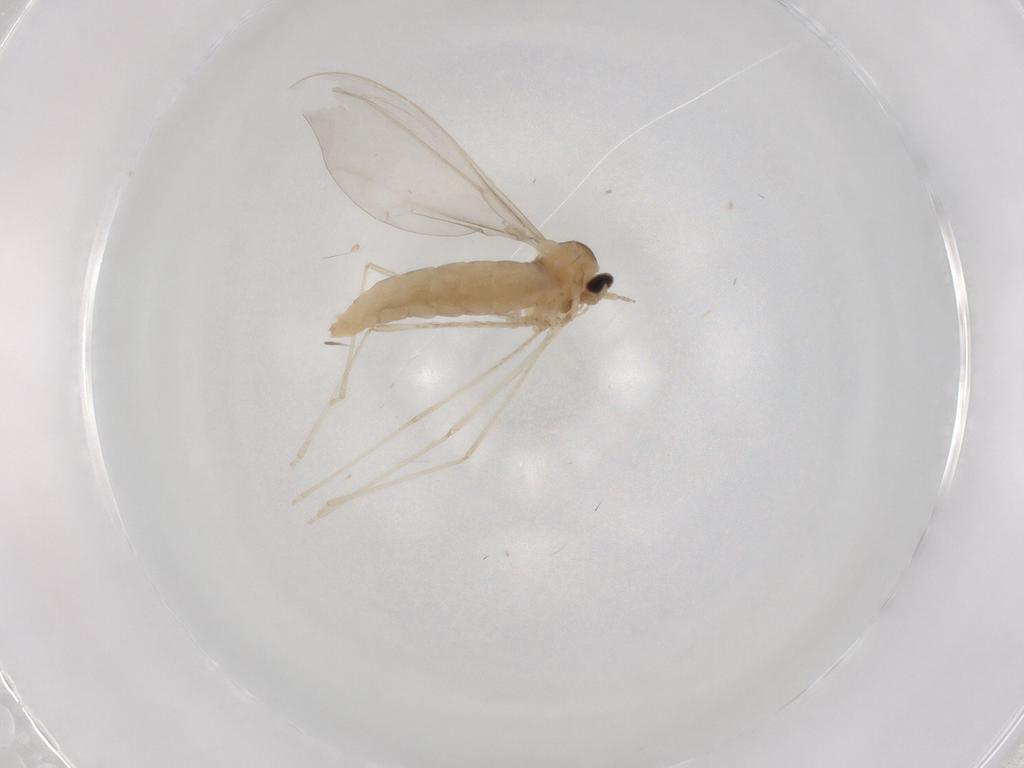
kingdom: Animalia
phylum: Arthropoda
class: Insecta
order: Diptera
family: Cecidomyiidae
